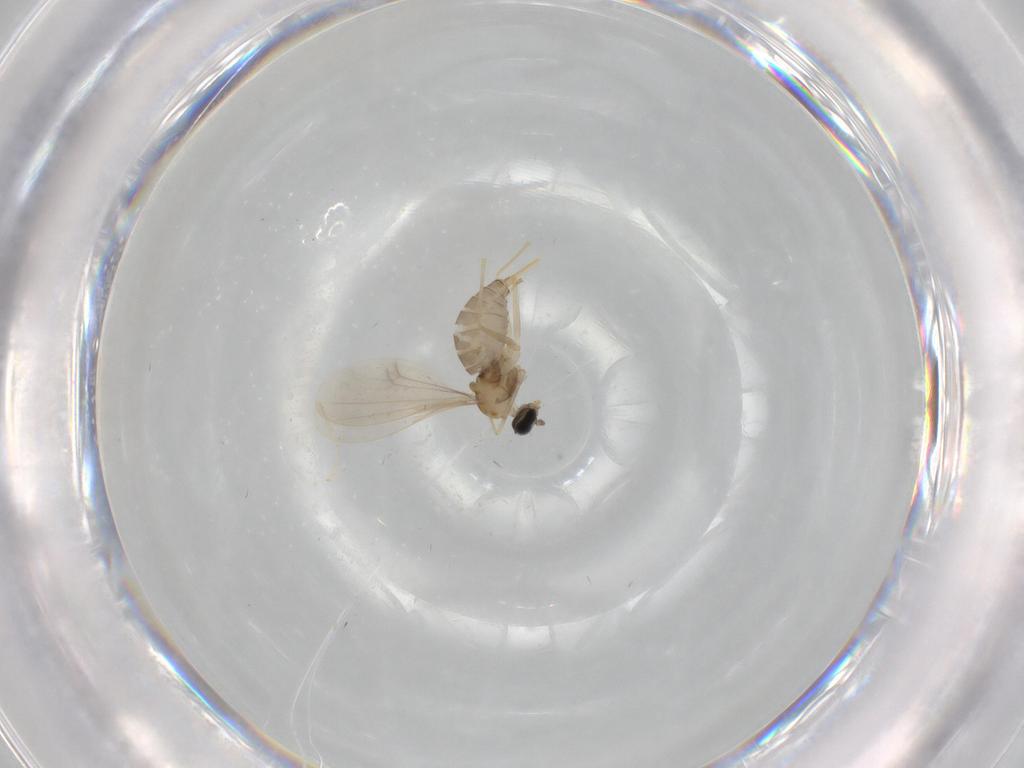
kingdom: Animalia
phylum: Arthropoda
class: Insecta
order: Diptera
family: Cecidomyiidae
